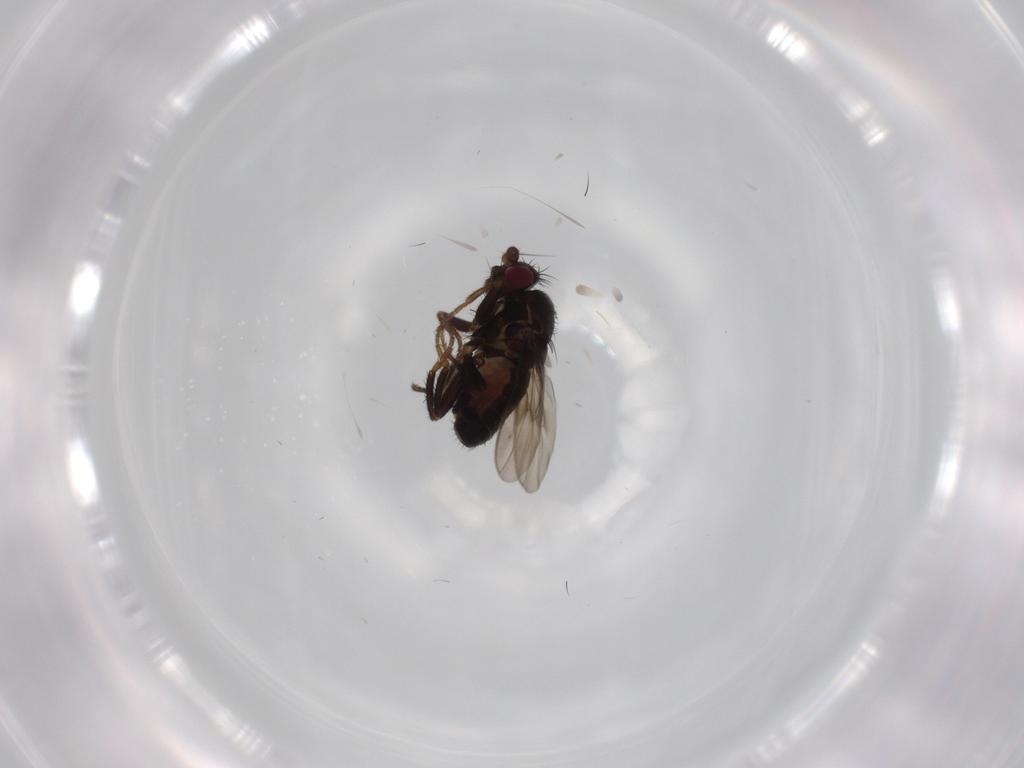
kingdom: Animalia
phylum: Arthropoda
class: Insecta
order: Diptera
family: Sphaeroceridae
